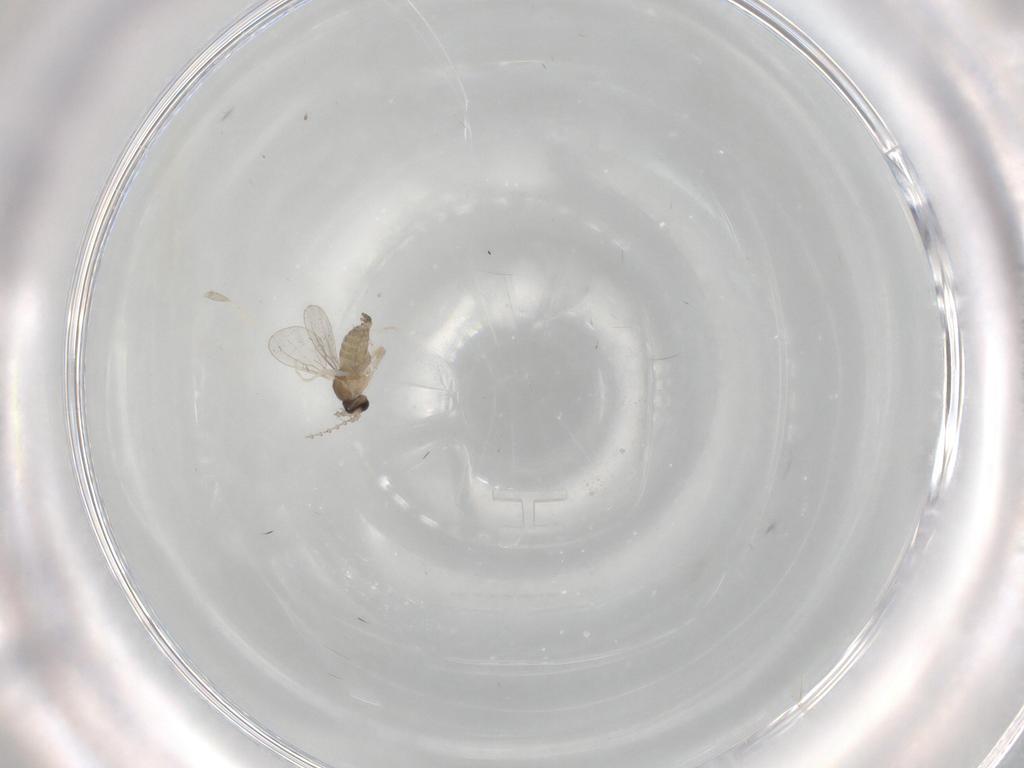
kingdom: Animalia
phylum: Arthropoda
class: Insecta
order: Diptera
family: Cecidomyiidae
